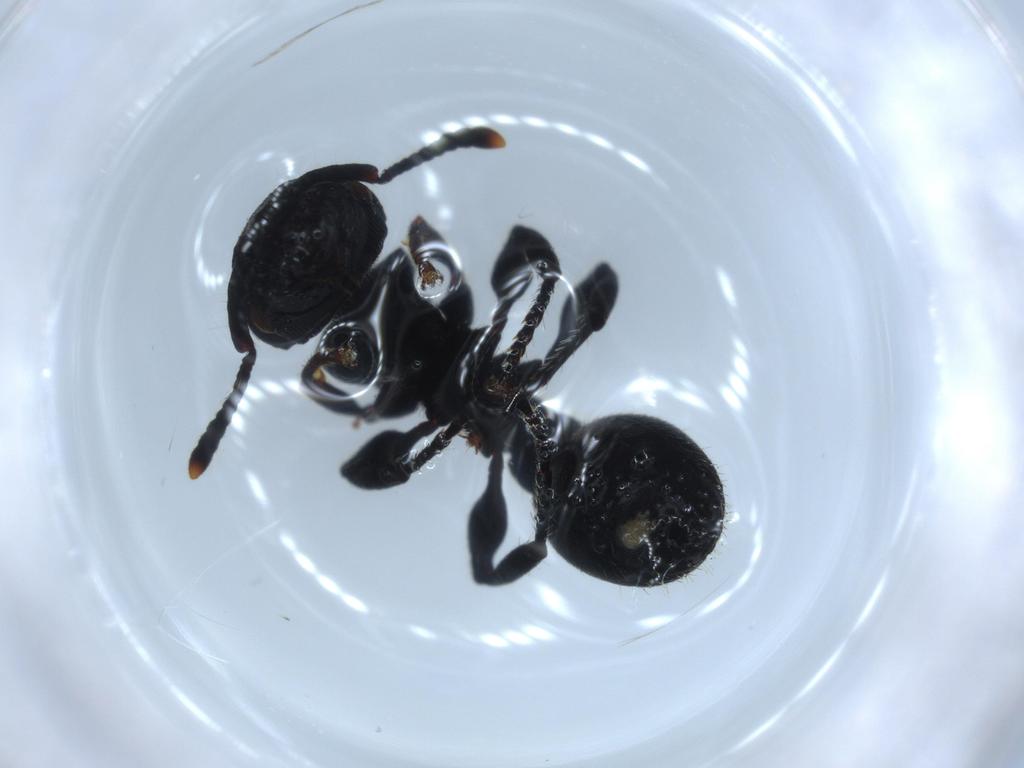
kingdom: Animalia
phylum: Arthropoda
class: Insecta
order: Hymenoptera
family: Formicidae
